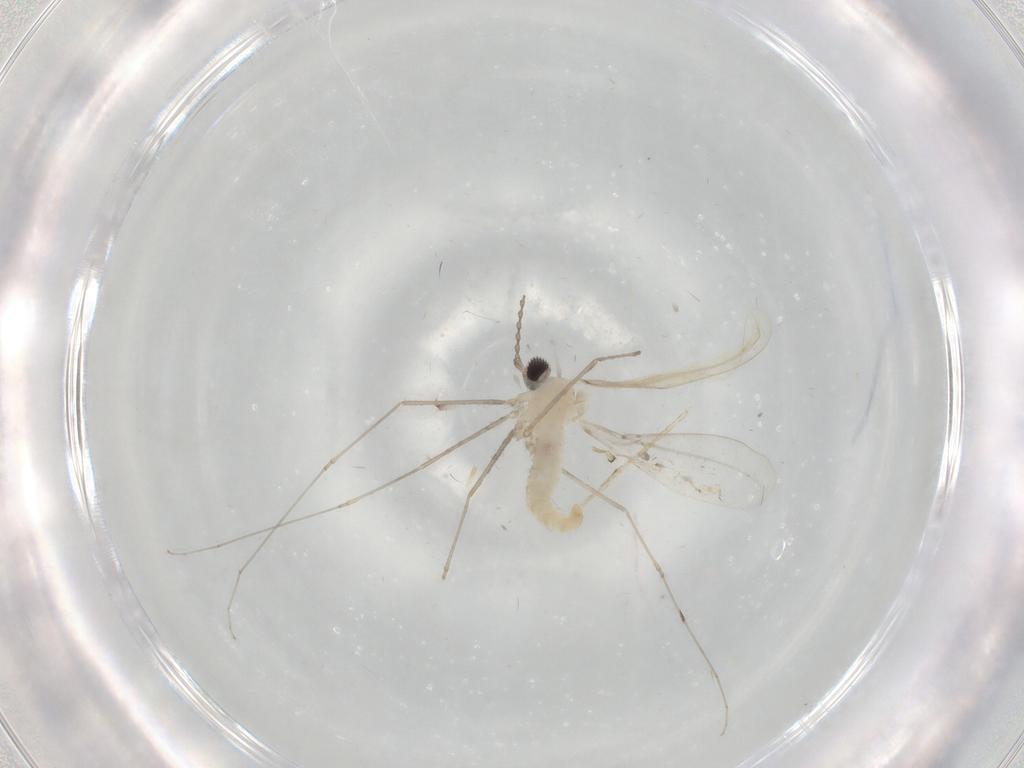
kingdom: Animalia
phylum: Arthropoda
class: Insecta
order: Diptera
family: Cecidomyiidae
